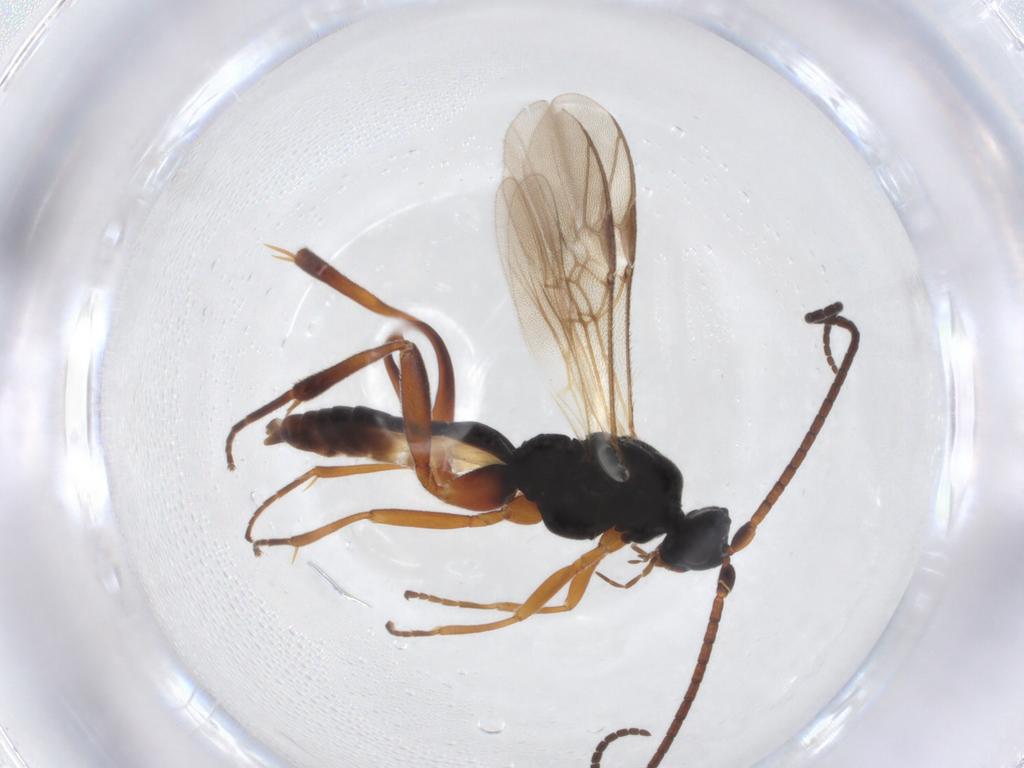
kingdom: Animalia
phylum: Arthropoda
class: Insecta
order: Hymenoptera
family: Braconidae
